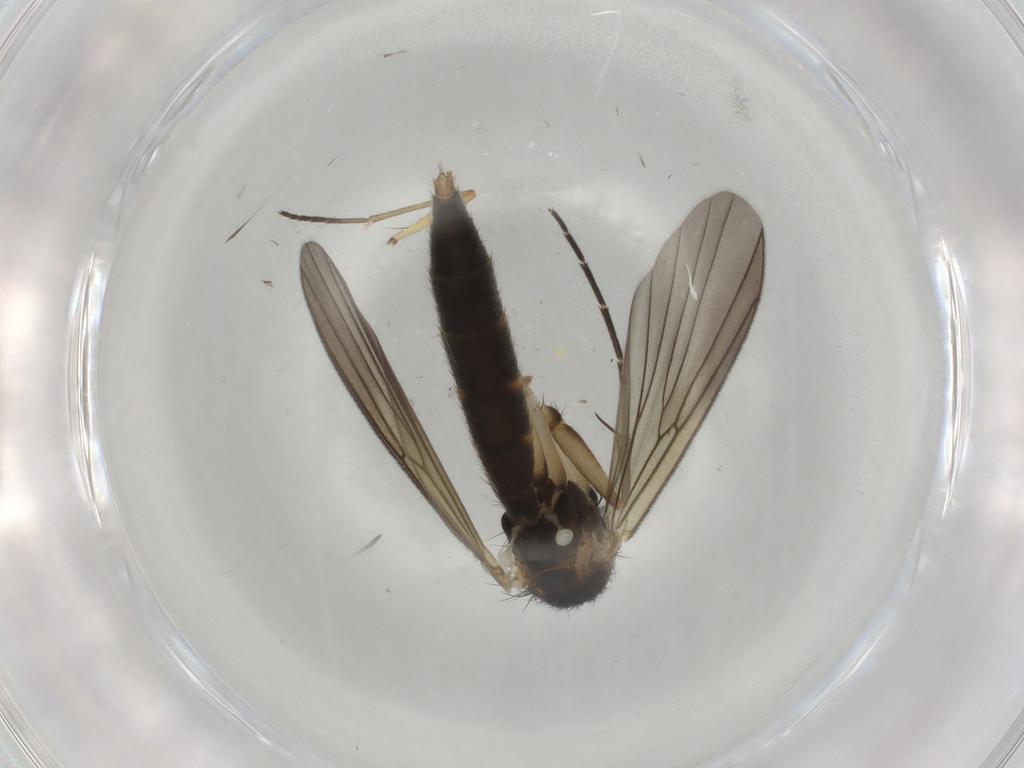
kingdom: Animalia
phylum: Arthropoda
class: Insecta
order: Diptera
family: Mycetophilidae
